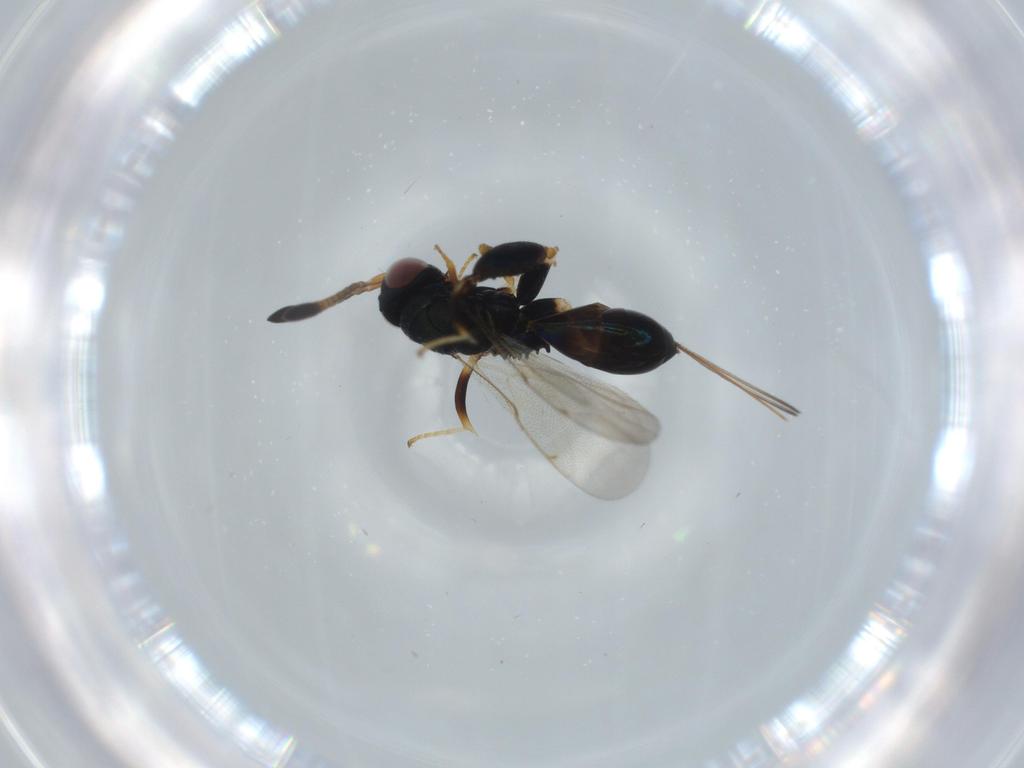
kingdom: Animalia
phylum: Arthropoda
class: Insecta
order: Hymenoptera
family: Torymidae
